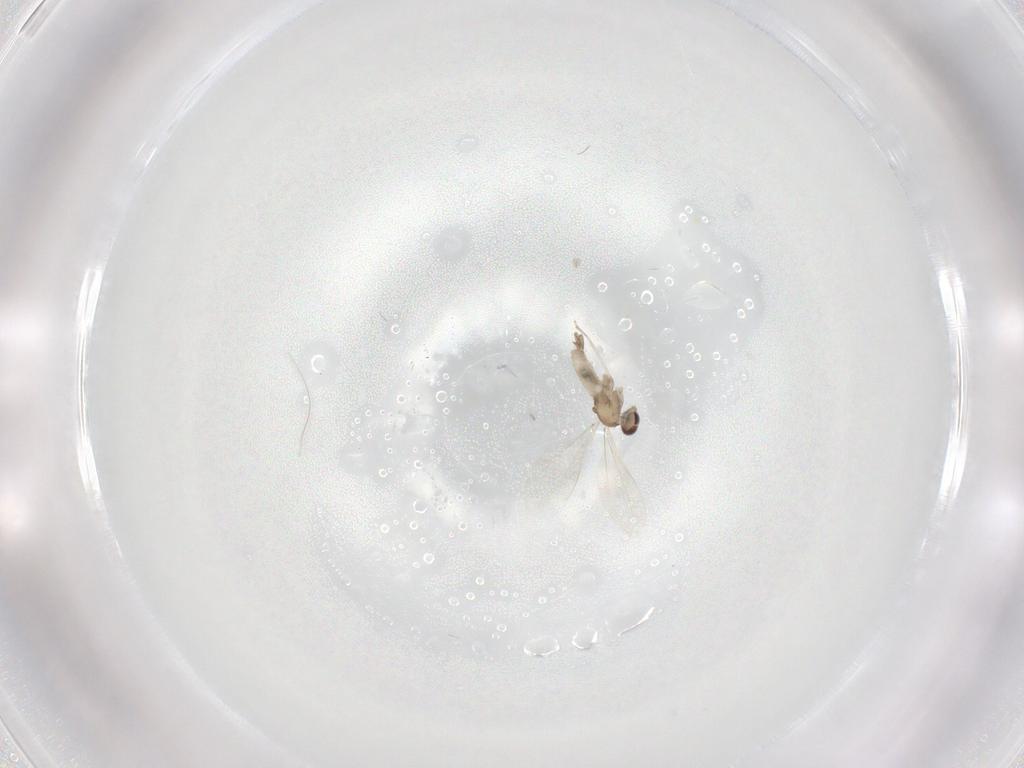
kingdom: Animalia
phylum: Arthropoda
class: Insecta
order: Diptera
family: Cecidomyiidae
